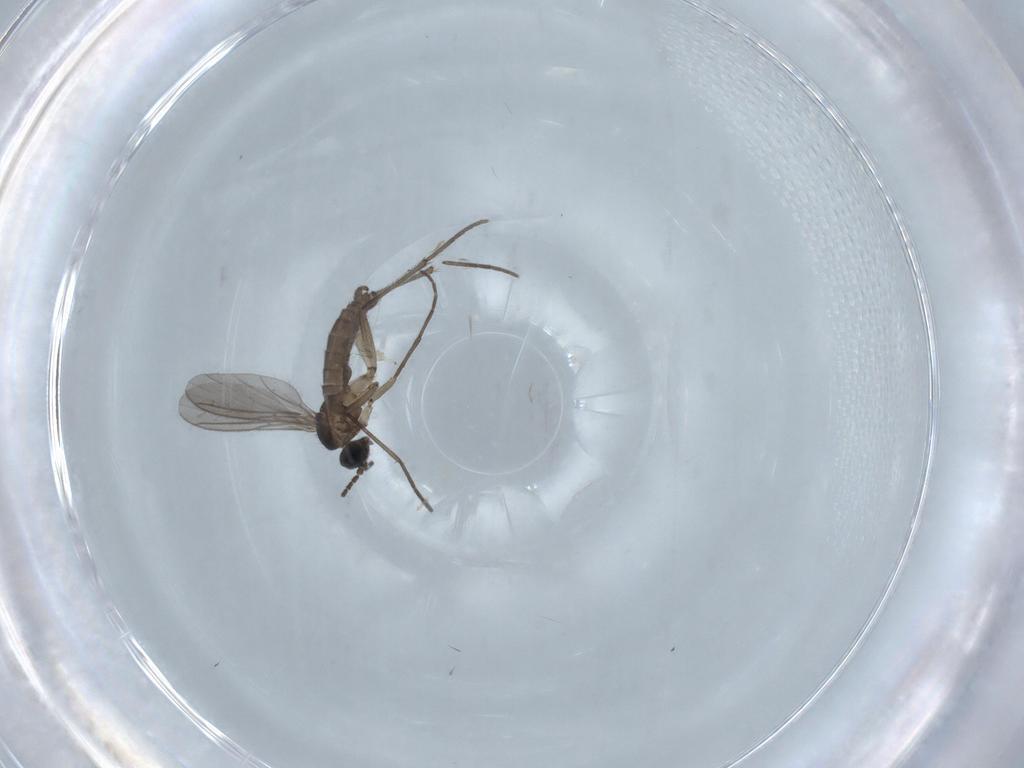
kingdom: Animalia
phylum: Arthropoda
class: Insecta
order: Diptera
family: Sciaridae
